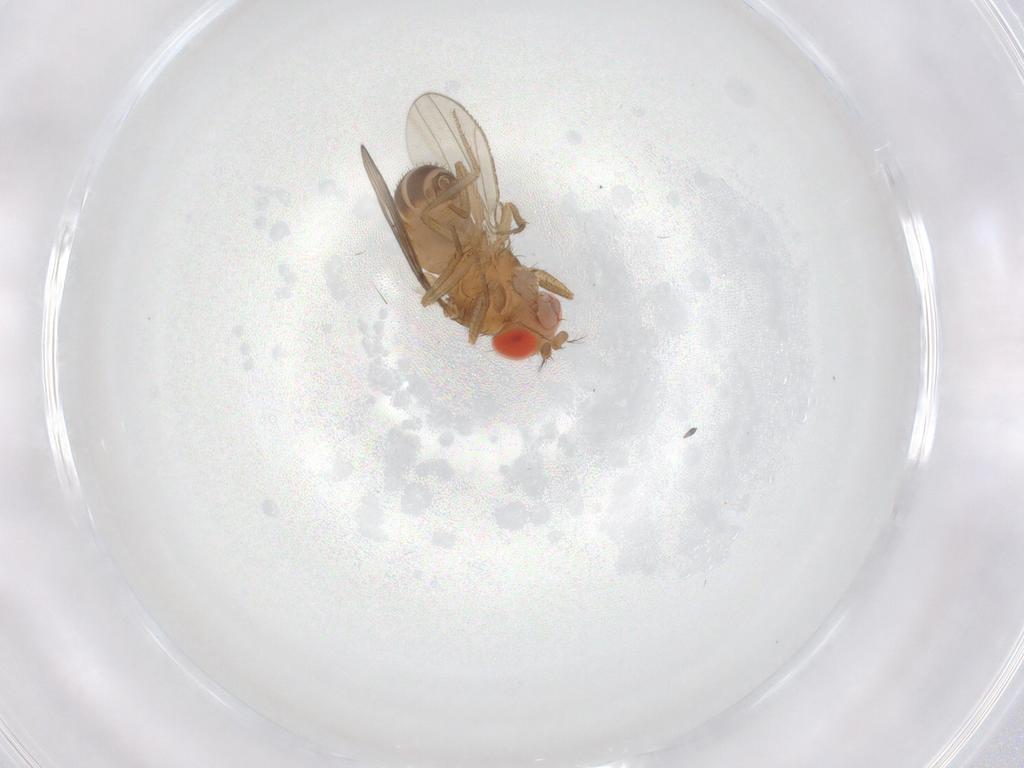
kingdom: Animalia
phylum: Arthropoda
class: Insecta
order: Diptera
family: Drosophilidae
